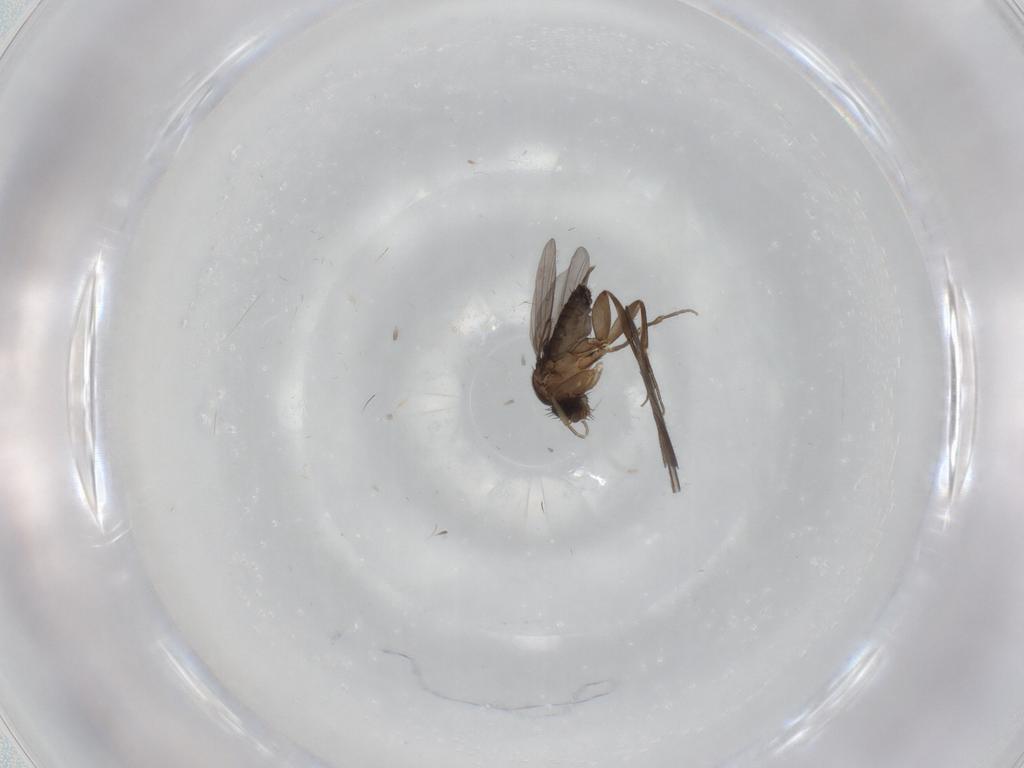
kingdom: Animalia
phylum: Arthropoda
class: Insecta
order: Diptera
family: Phoridae
